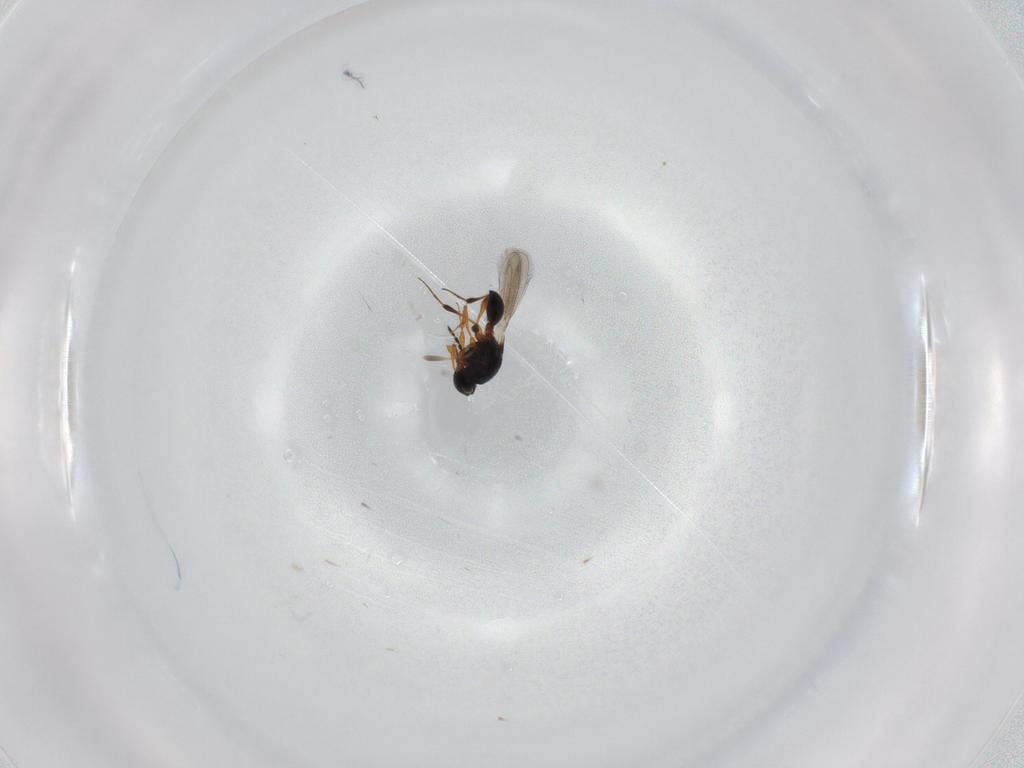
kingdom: Animalia
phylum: Arthropoda
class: Insecta
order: Hymenoptera
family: Platygastridae
